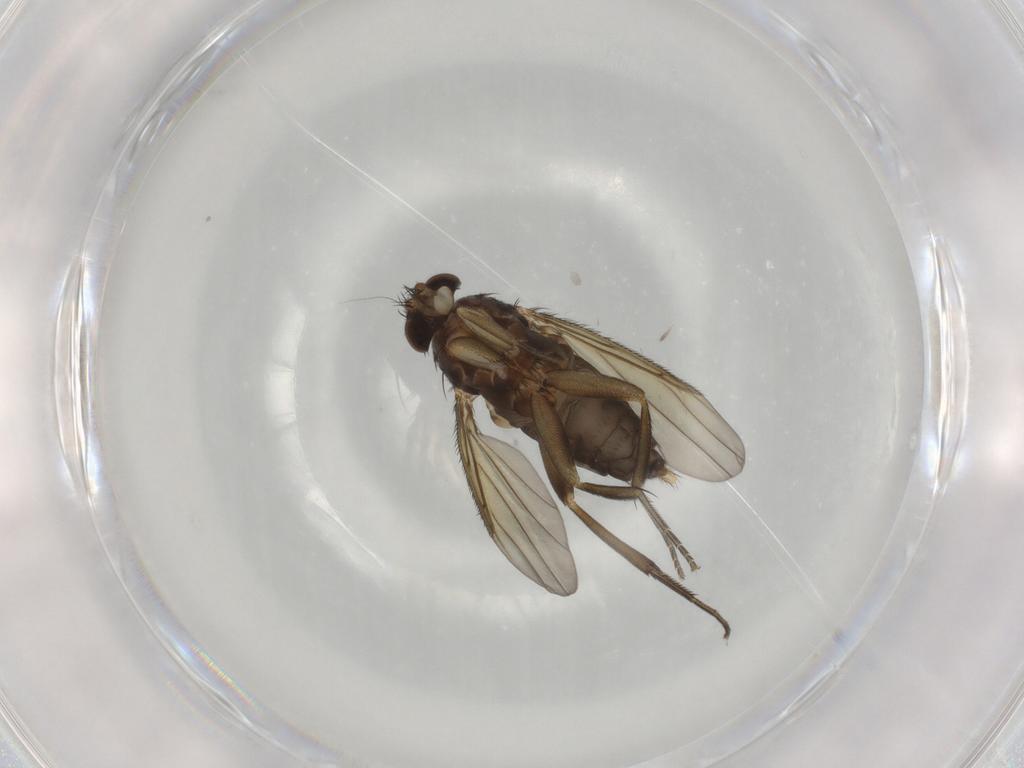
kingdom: Animalia
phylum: Arthropoda
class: Insecta
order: Diptera
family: Phoridae
